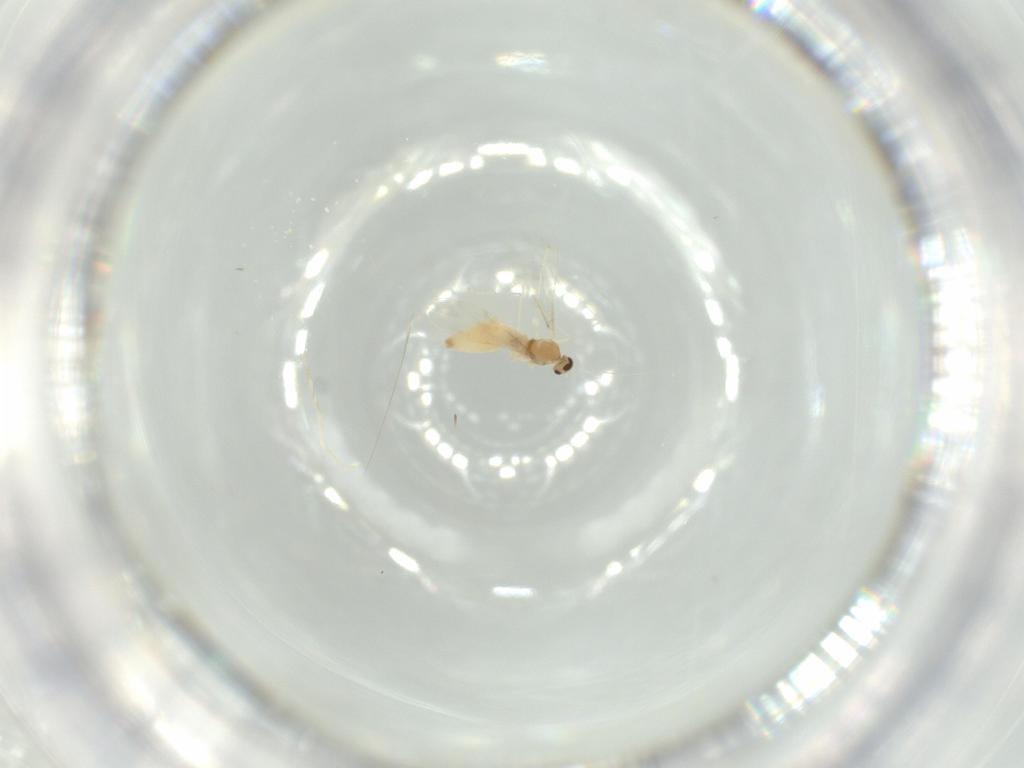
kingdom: Animalia
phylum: Arthropoda
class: Insecta
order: Diptera
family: Cecidomyiidae
